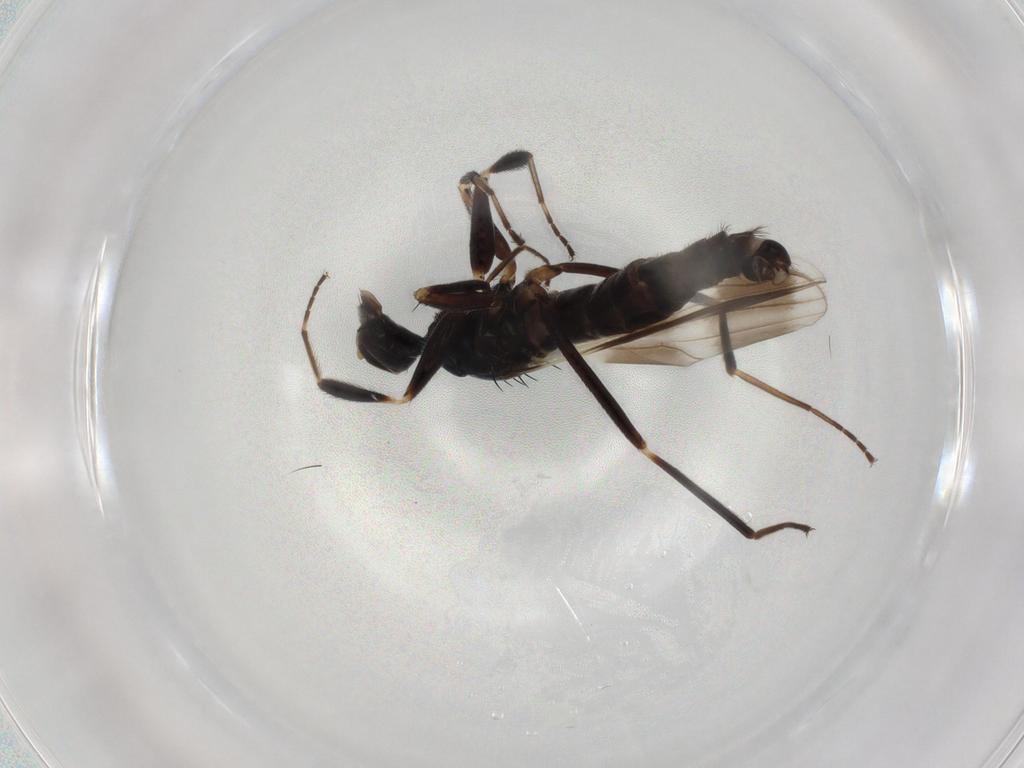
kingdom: Animalia
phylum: Arthropoda
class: Insecta
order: Diptera
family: Hybotidae
